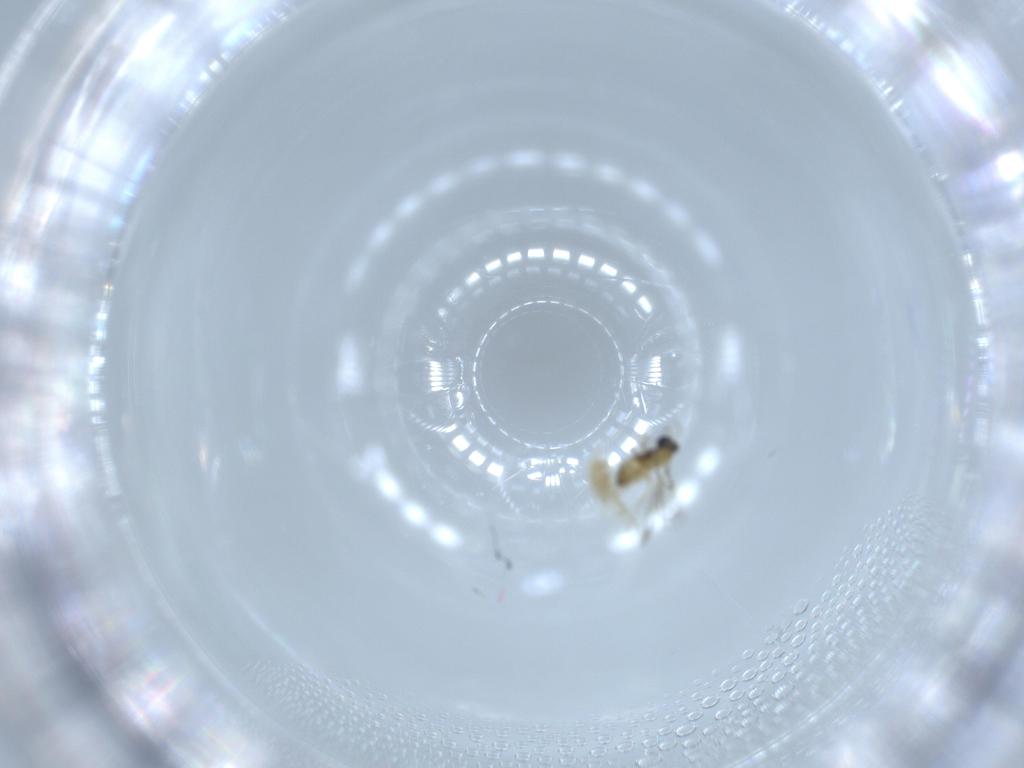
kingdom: Animalia
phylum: Arthropoda
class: Insecta
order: Hymenoptera
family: Trichogrammatidae
